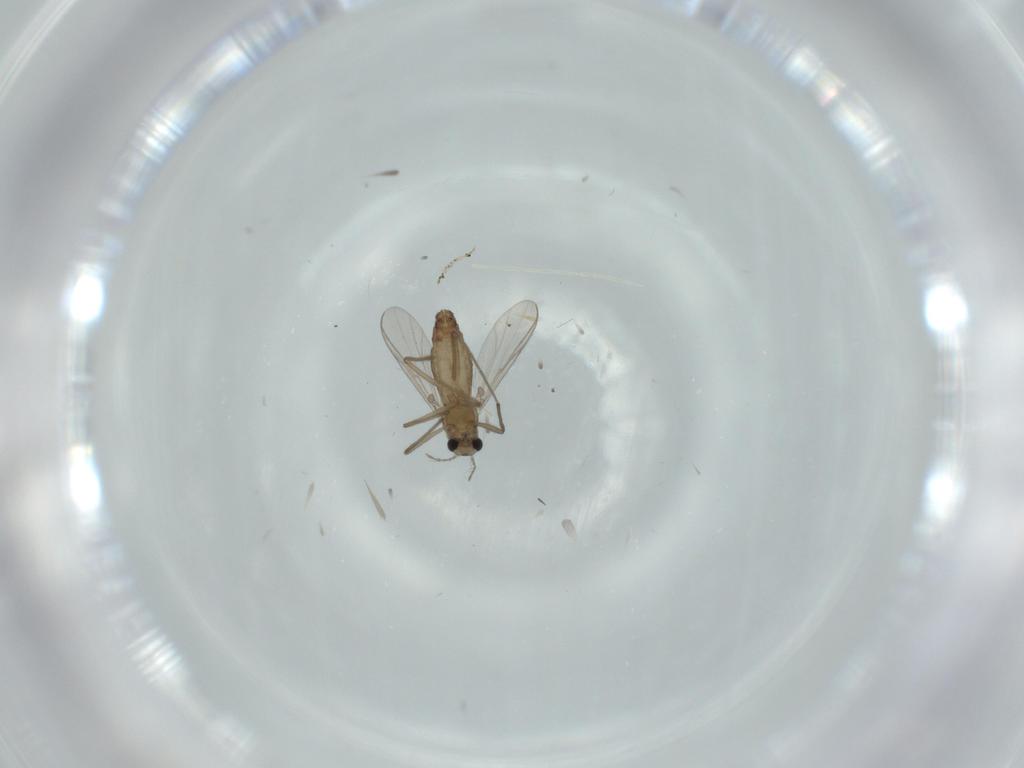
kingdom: Animalia
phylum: Arthropoda
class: Insecta
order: Diptera
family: Chironomidae
